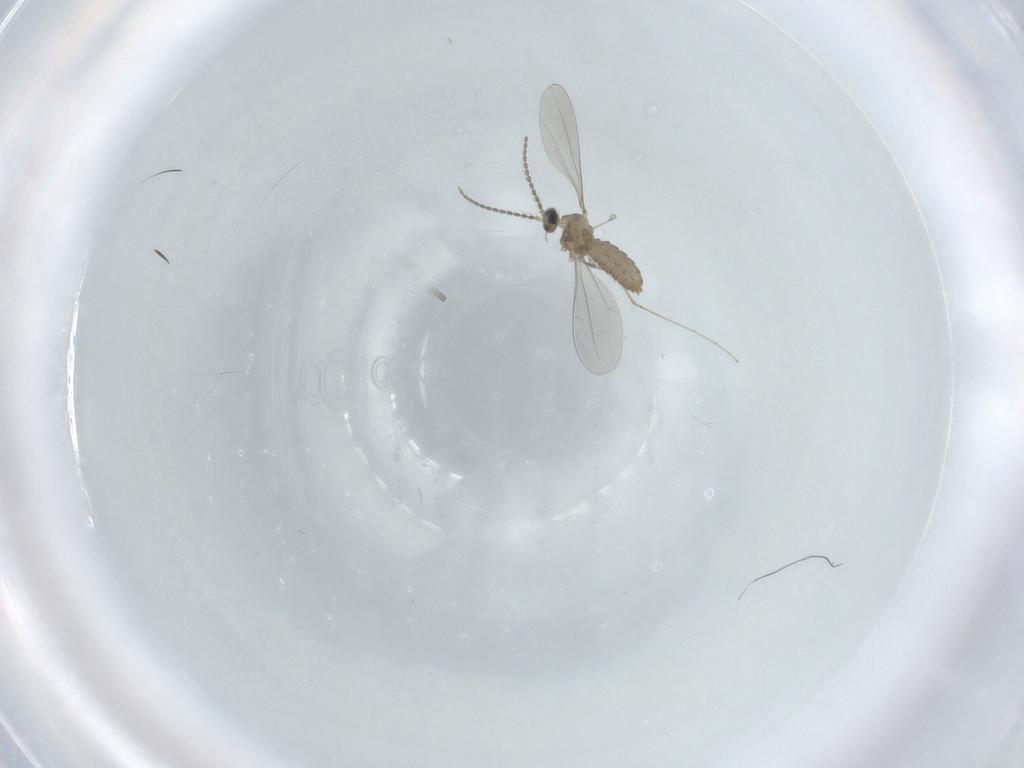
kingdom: Animalia
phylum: Arthropoda
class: Insecta
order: Diptera
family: Cecidomyiidae
